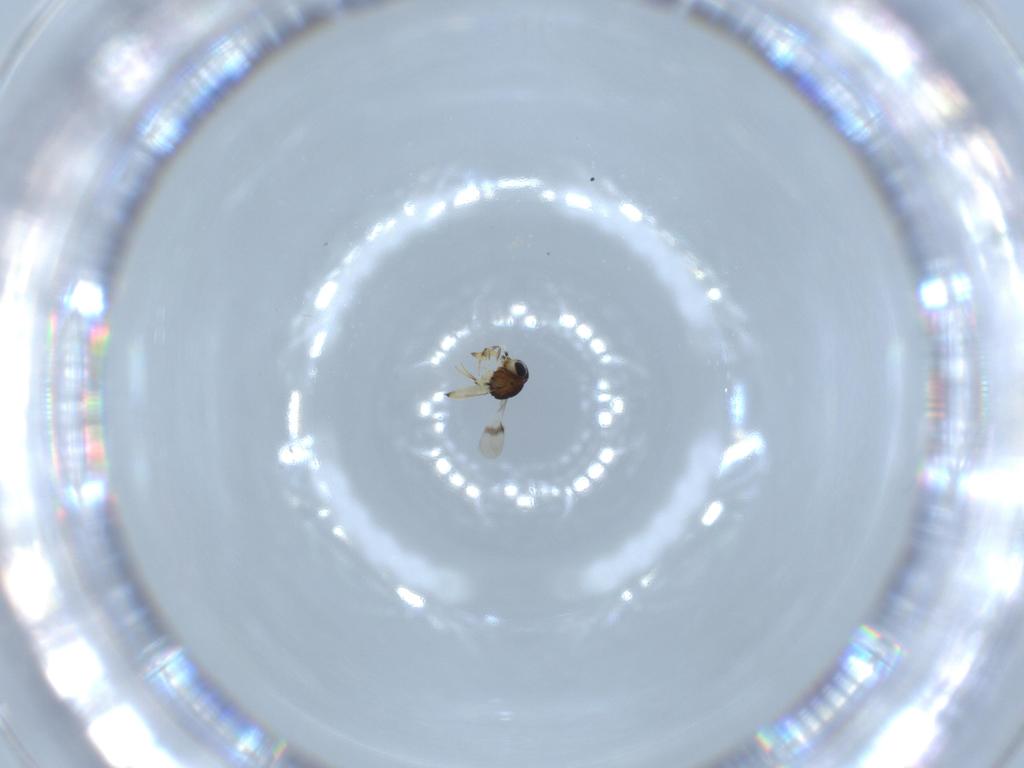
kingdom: Animalia
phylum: Arthropoda
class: Insecta
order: Hymenoptera
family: Scelionidae
